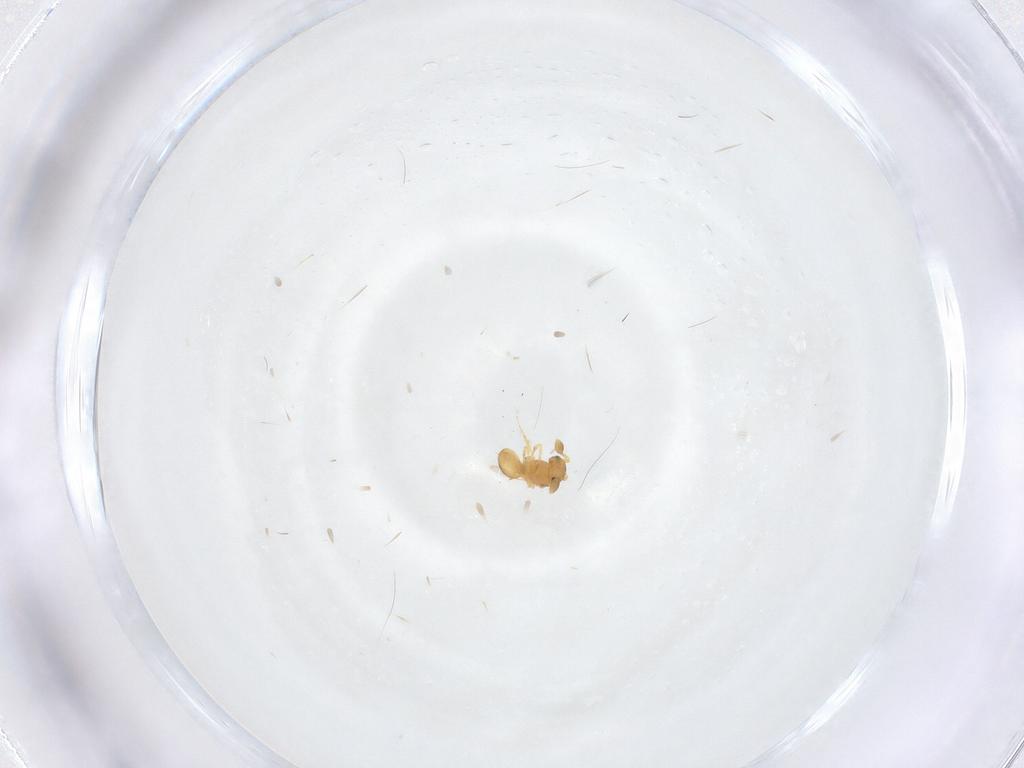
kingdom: Animalia
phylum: Arthropoda
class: Insecta
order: Hymenoptera
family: Scelionidae
